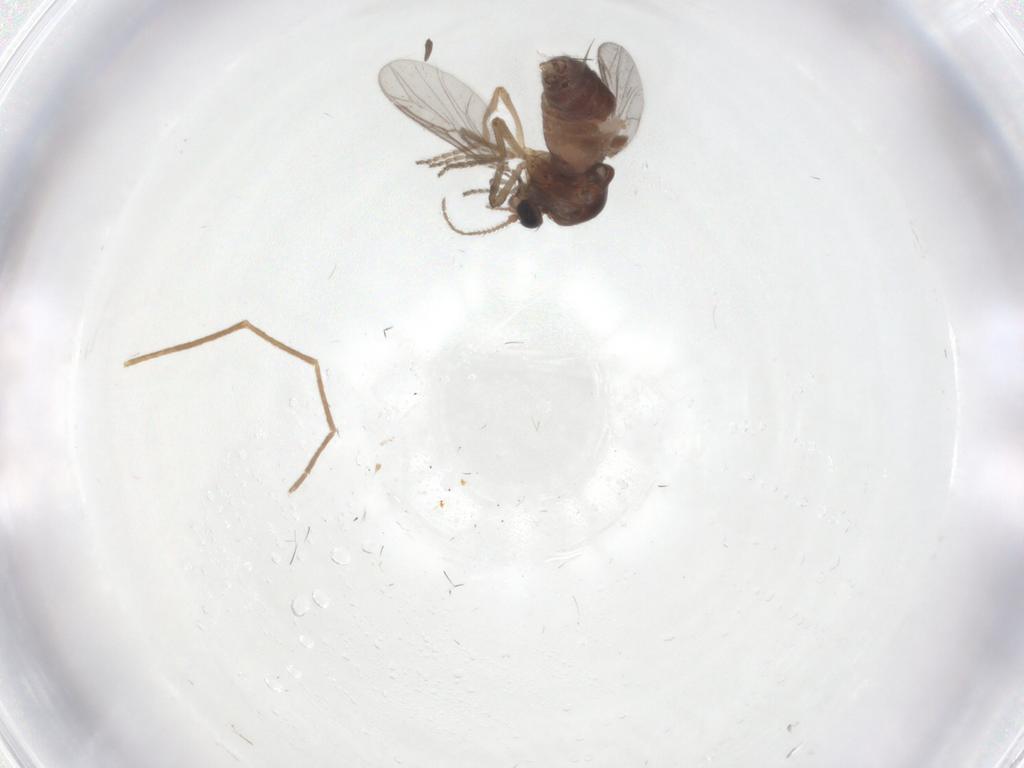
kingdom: Animalia
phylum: Arthropoda
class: Insecta
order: Diptera
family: Ceratopogonidae
